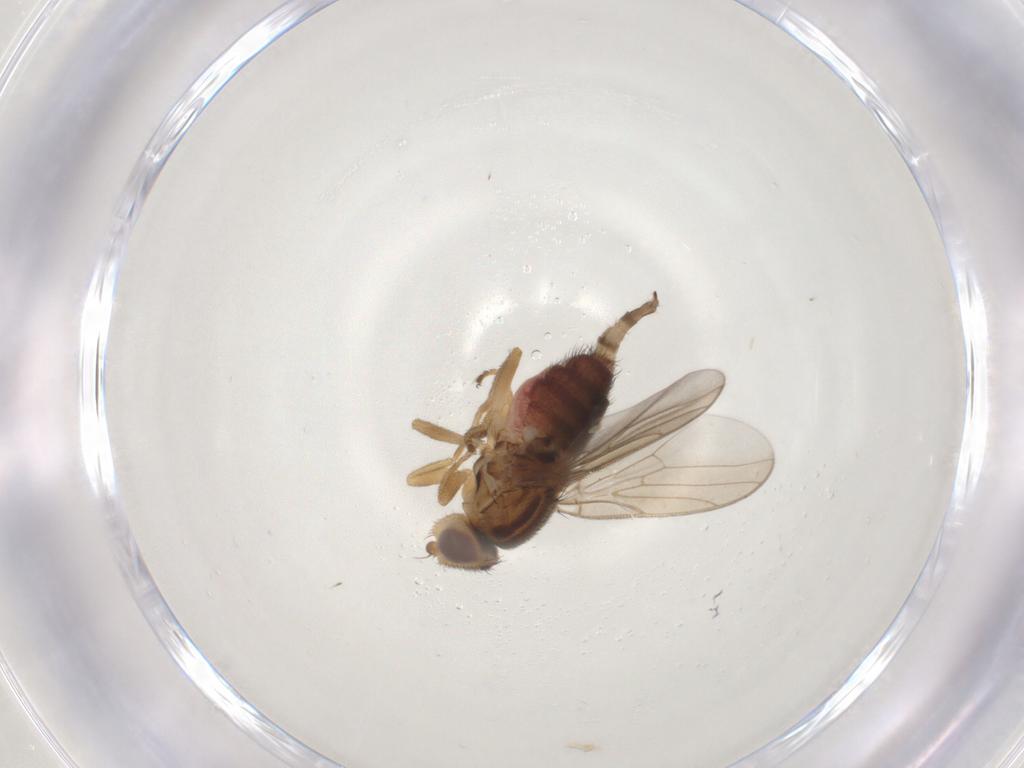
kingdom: Animalia
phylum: Arthropoda
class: Insecta
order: Diptera
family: Chloropidae
